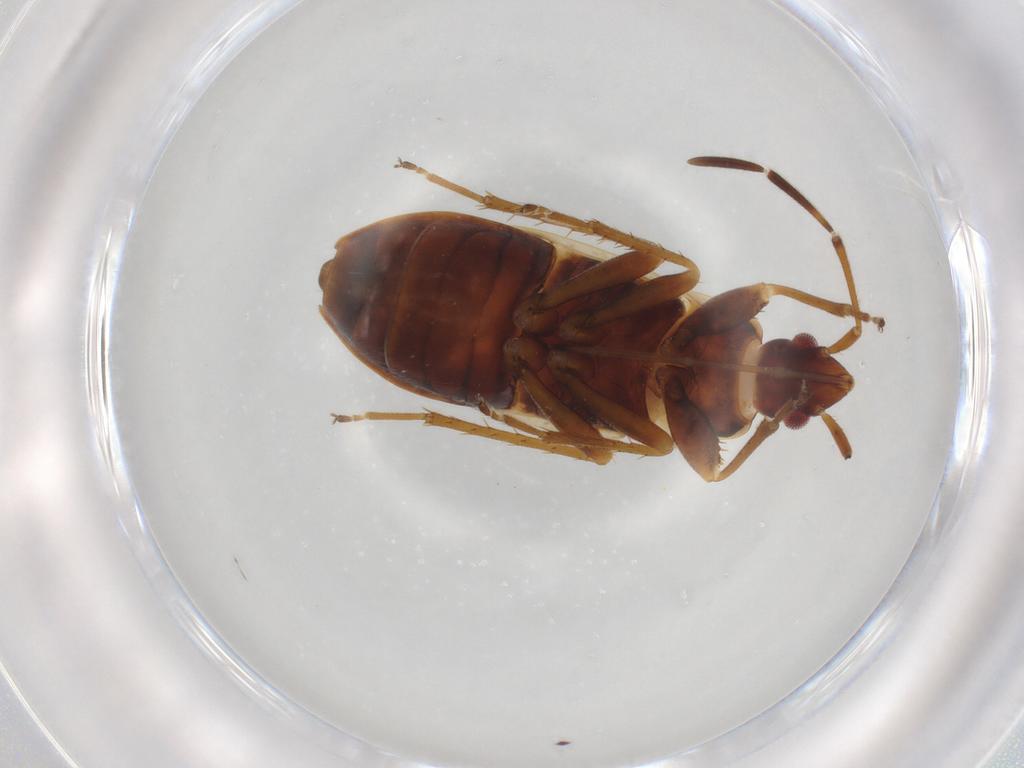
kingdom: Animalia
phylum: Arthropoda
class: Insecta
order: Hemiptera
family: Lygaeidae
